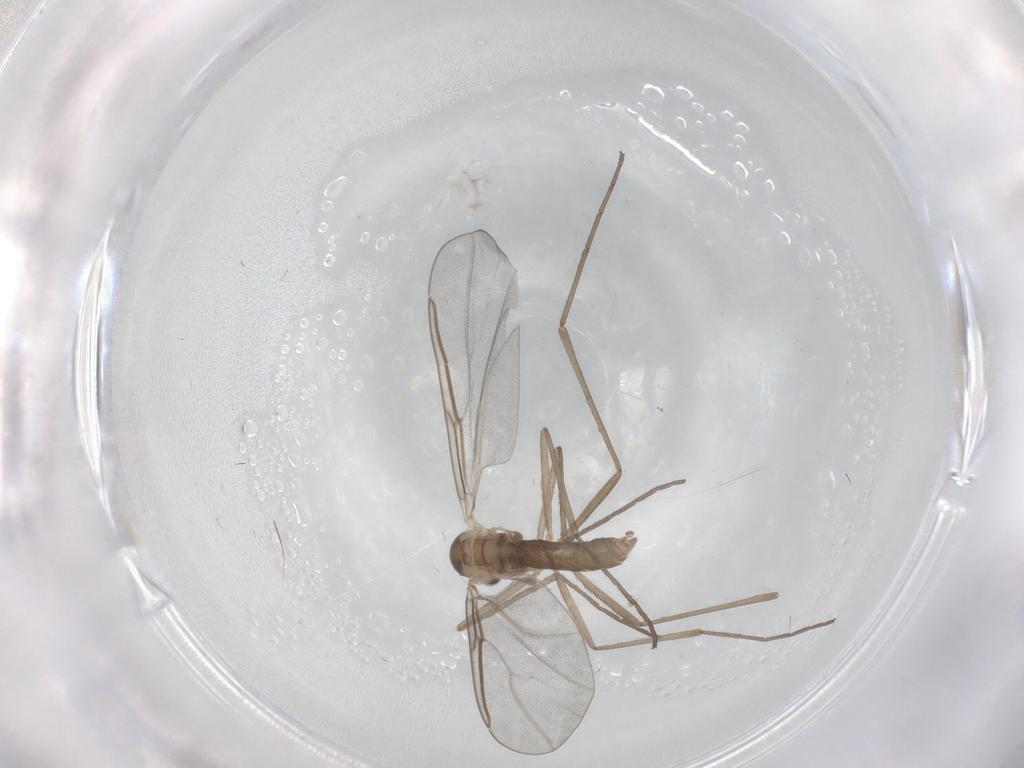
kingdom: Animalia
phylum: Arthropoda
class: Insecta
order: Diptera
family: Cecidomyiidae
